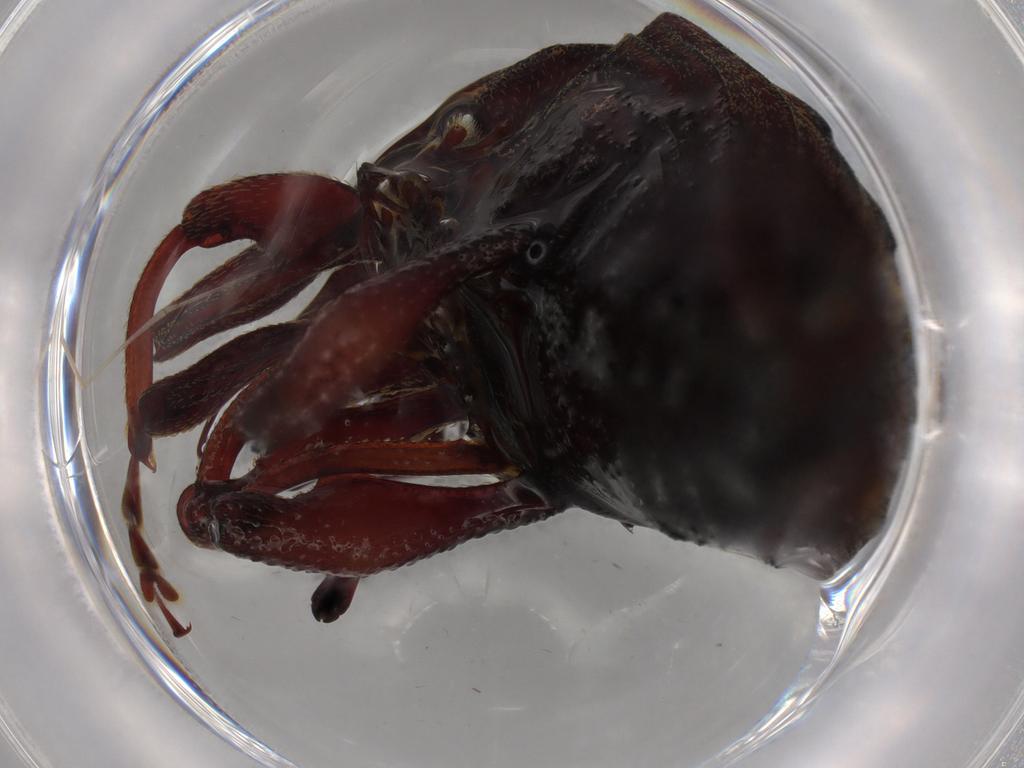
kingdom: Animalia
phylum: Arthropoda
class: Insecta
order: Coleoptera
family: Curculionidae
